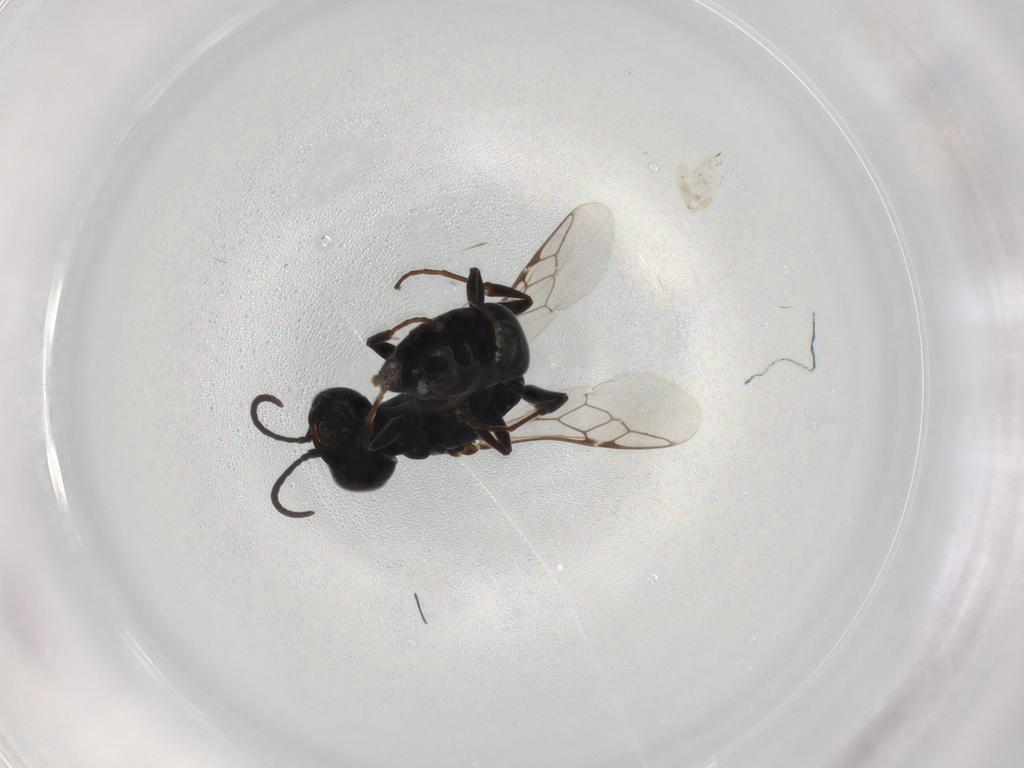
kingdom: Animalia
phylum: Arthropoda
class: Insecta
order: Hymenoptera
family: Crabronidae
